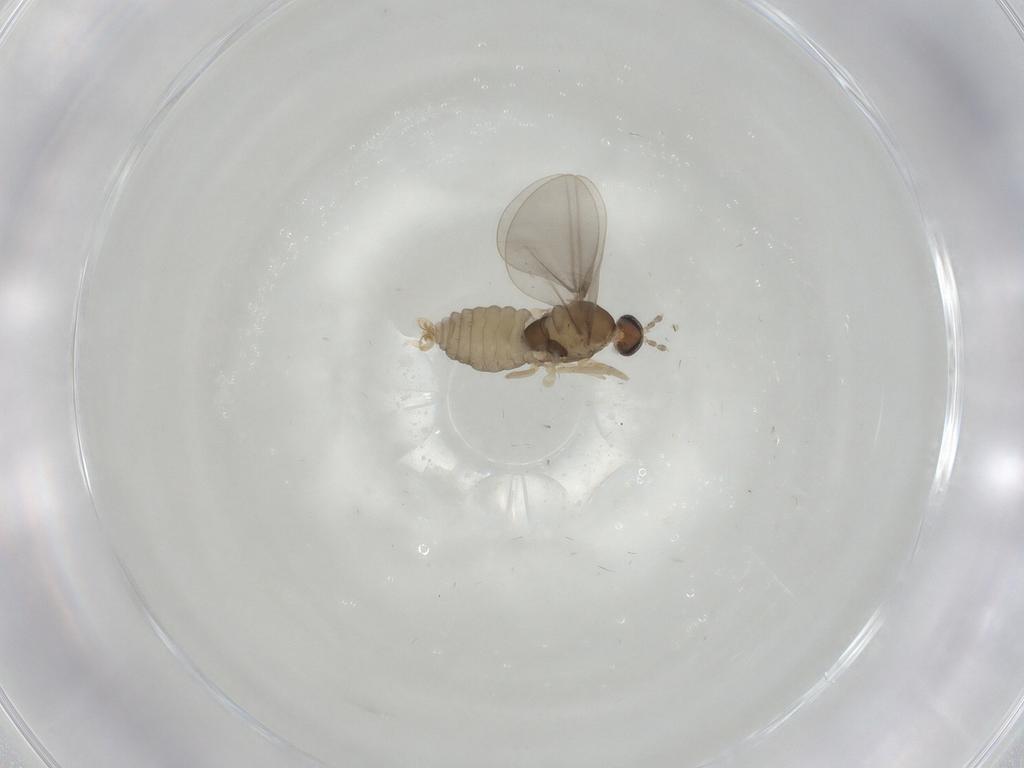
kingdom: Animalia
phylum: Arthropoda
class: Insecta
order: Diptera
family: Cecidomyiidae
